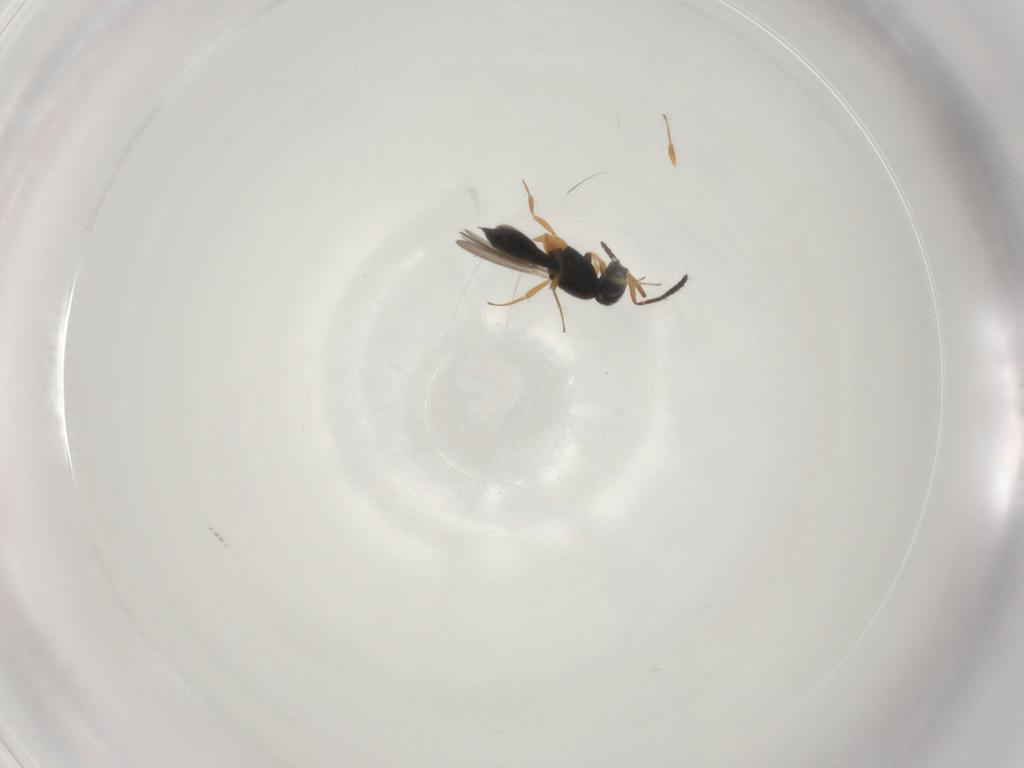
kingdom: Animalia
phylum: Arthropoda
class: Insecta
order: Hymenoptera
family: Scelionidae
